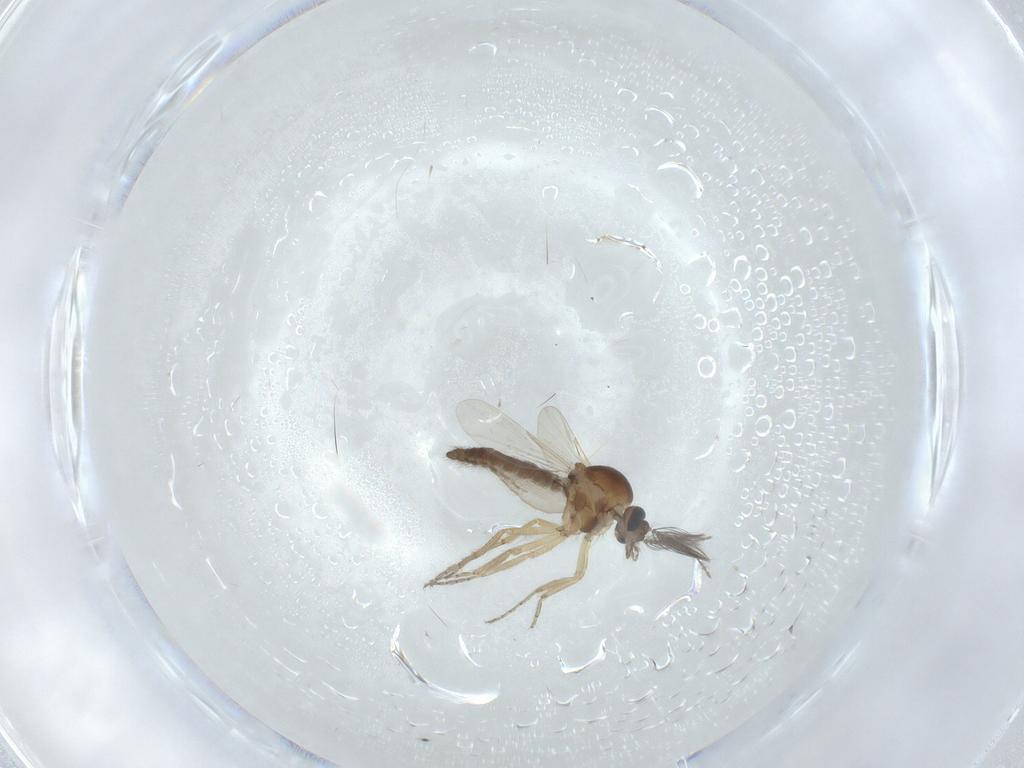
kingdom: Animalia
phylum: Arthropoda
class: Insecta
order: Diptera
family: Ceratopogonidae
